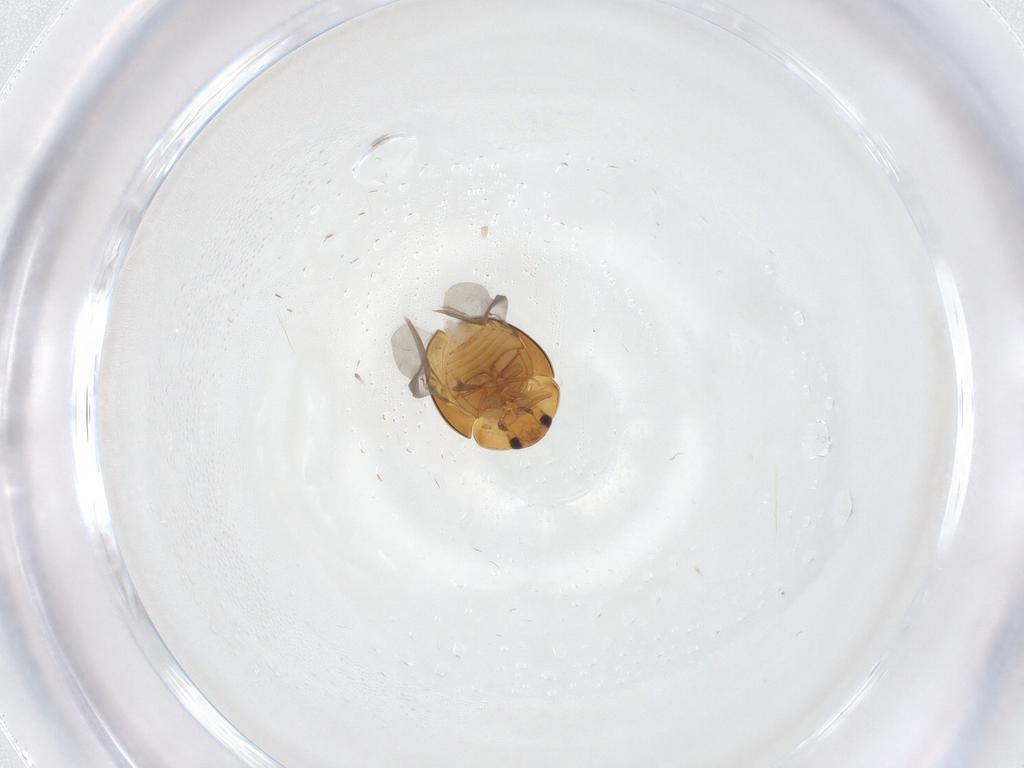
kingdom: Animalia
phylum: Arthropoda
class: Insecta
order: Coleoptera
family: Phalacridae
